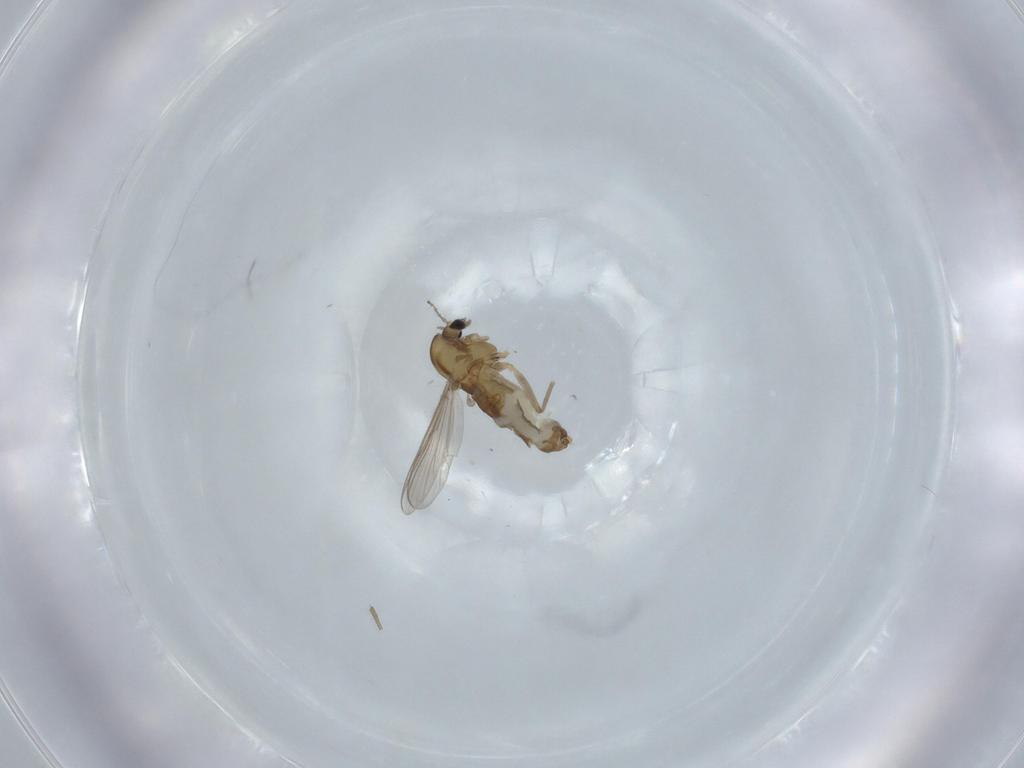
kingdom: Animalia
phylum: Arthropoda
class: Insecta
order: Diptera
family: Chironomidae
